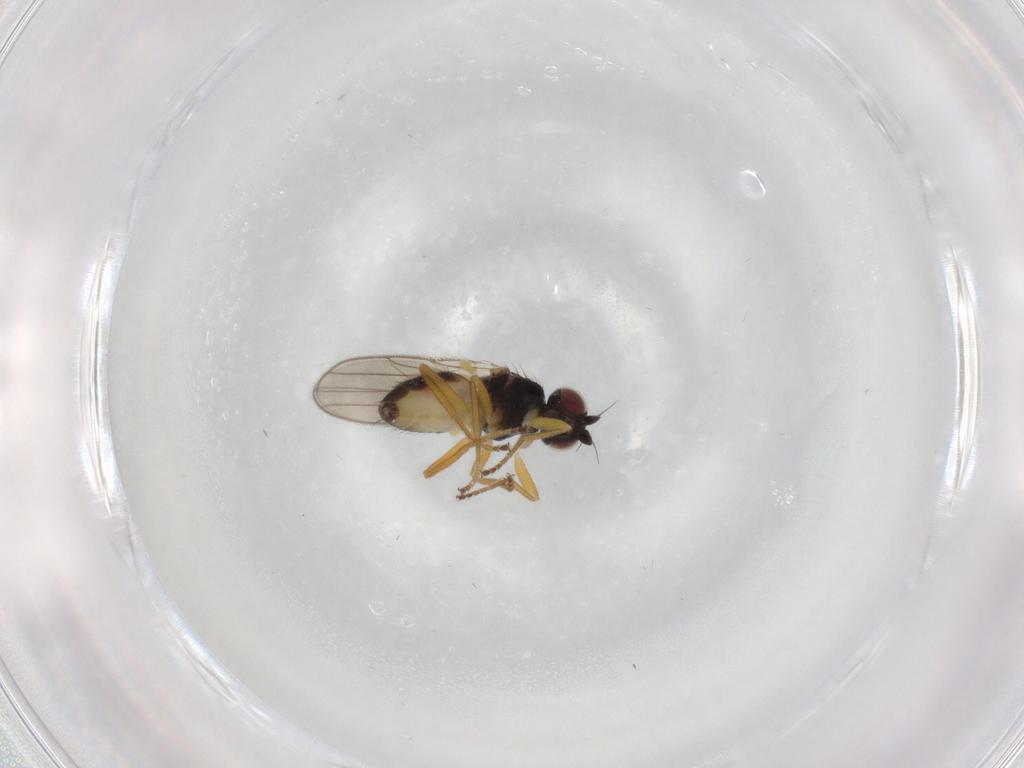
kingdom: Animalia
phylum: Arthropoda
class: Insecta
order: Diptera
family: Chloropidae
